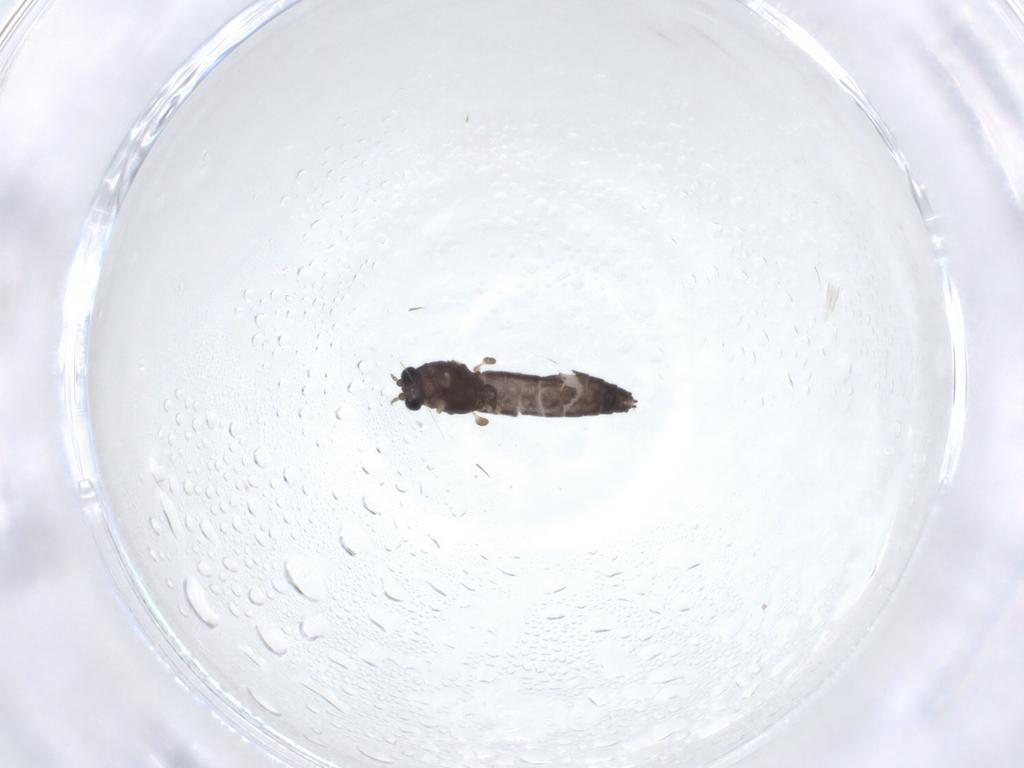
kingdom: Animalia
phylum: Arthropoda
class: Insecta
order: Diptera
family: Chironomidae
